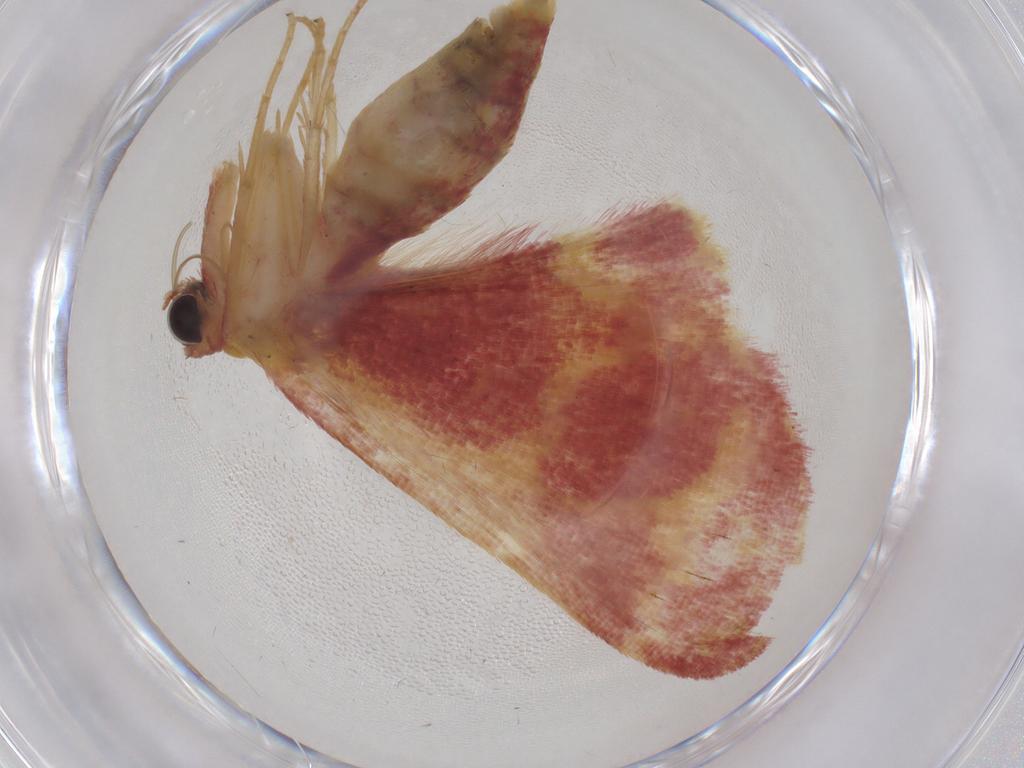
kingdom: Animalia
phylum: Arthropoda
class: Insecta
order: Lepidoptera
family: Geometridae
